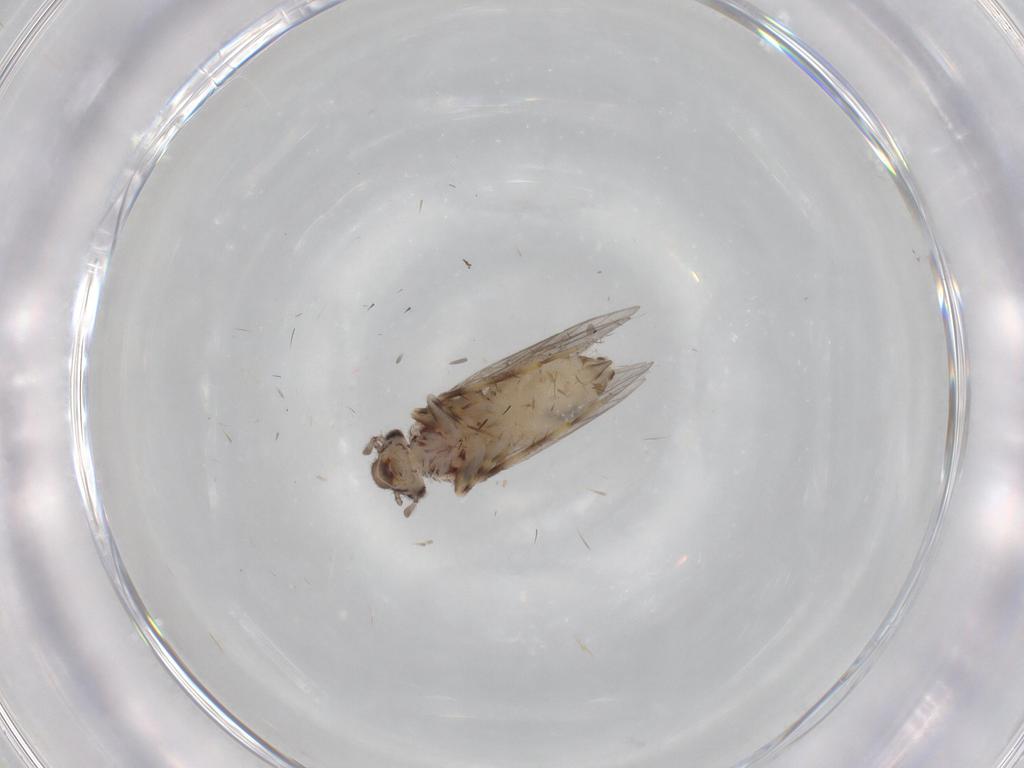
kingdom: Animalia
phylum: Arthropoda
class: Insecta
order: Psocodea
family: Lepidopsocidae
